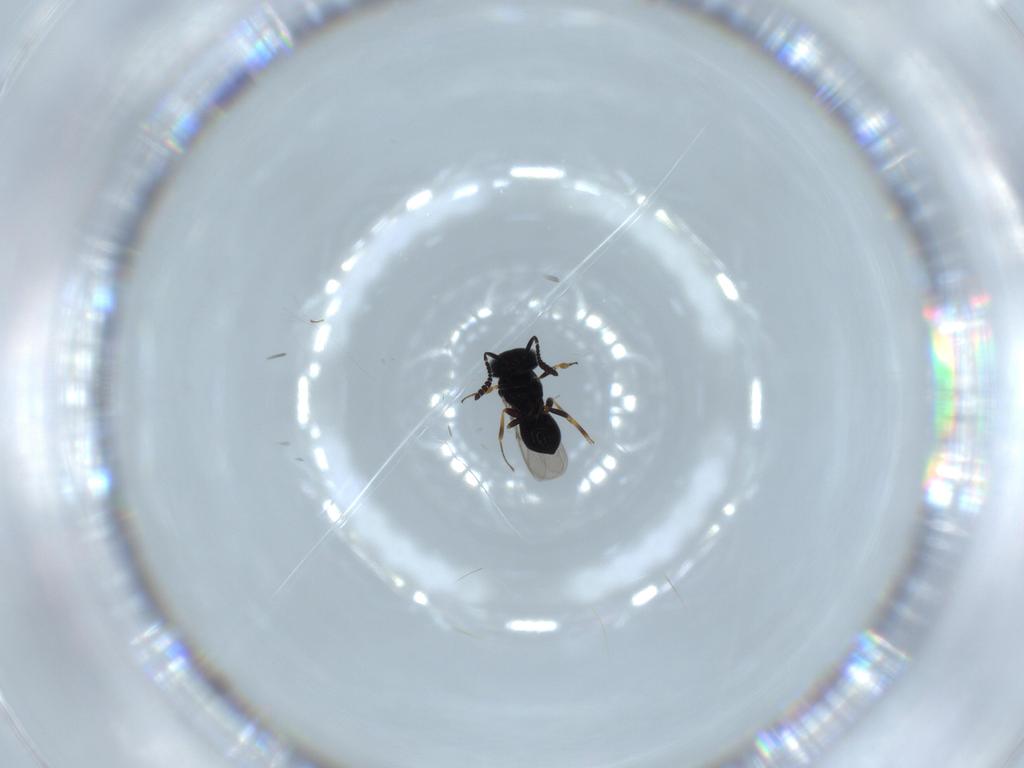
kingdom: Animalia
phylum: Arthropoda
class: Insecta
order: Hymenoptera
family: Scelionidae
